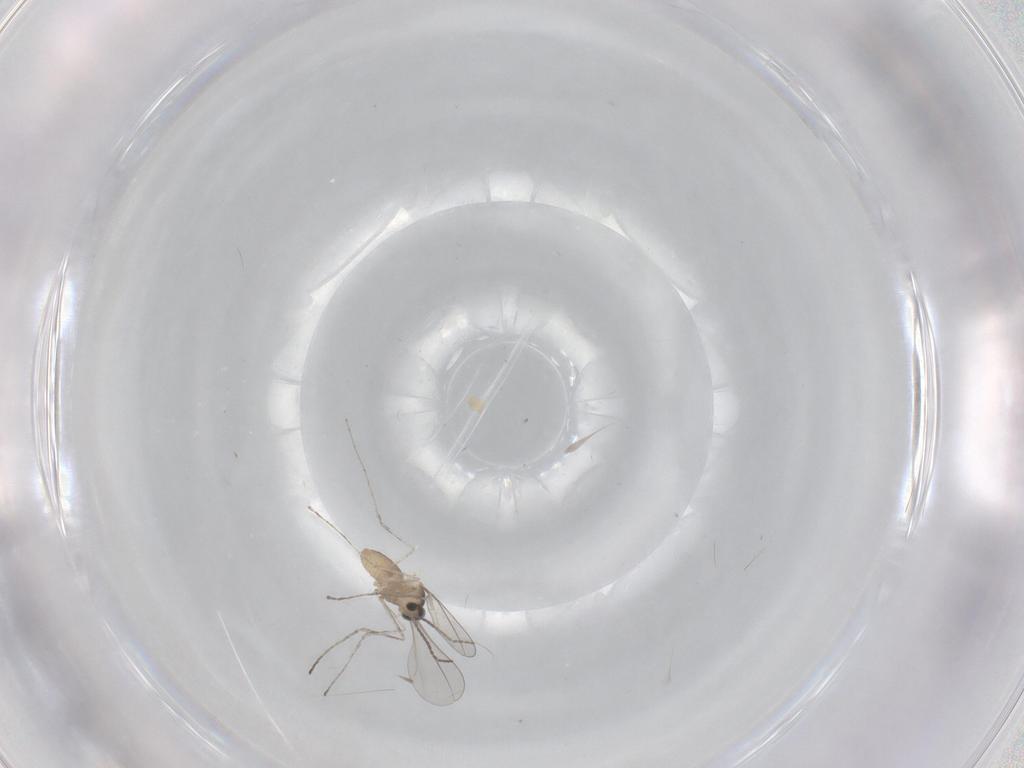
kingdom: Animalia
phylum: Arthropoda
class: Insecta
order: Diptera
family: Cecidomyiidae
